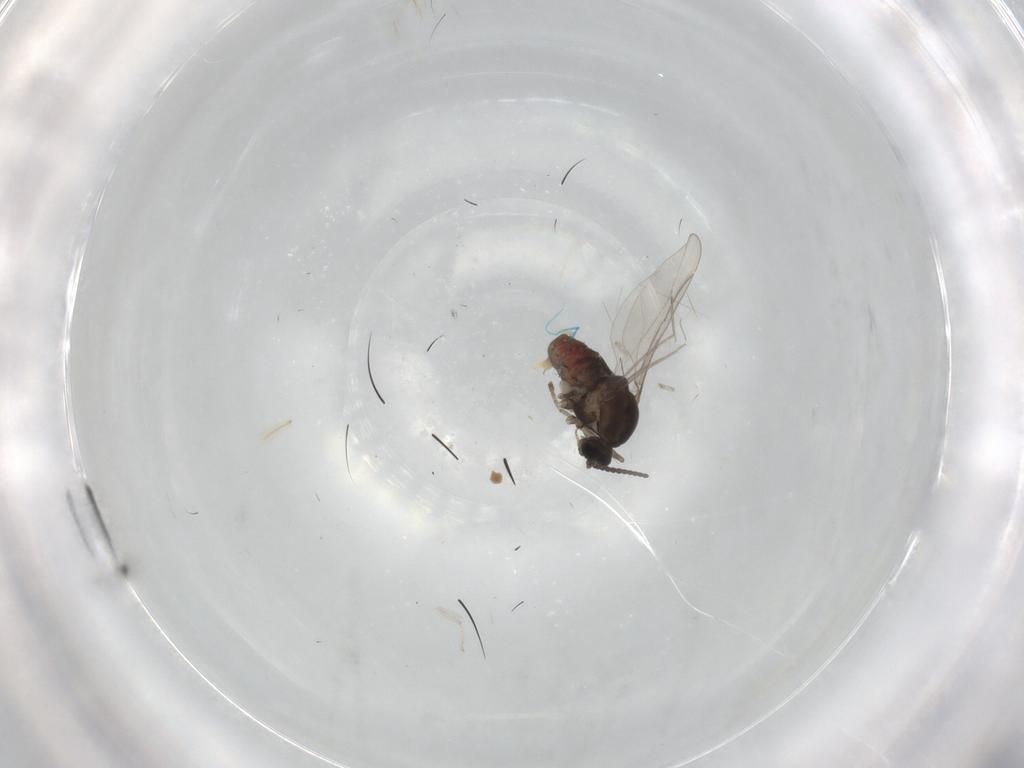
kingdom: Animalia
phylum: Arthropoda
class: Insecta
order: Diptera
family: Cecidomyiidae
